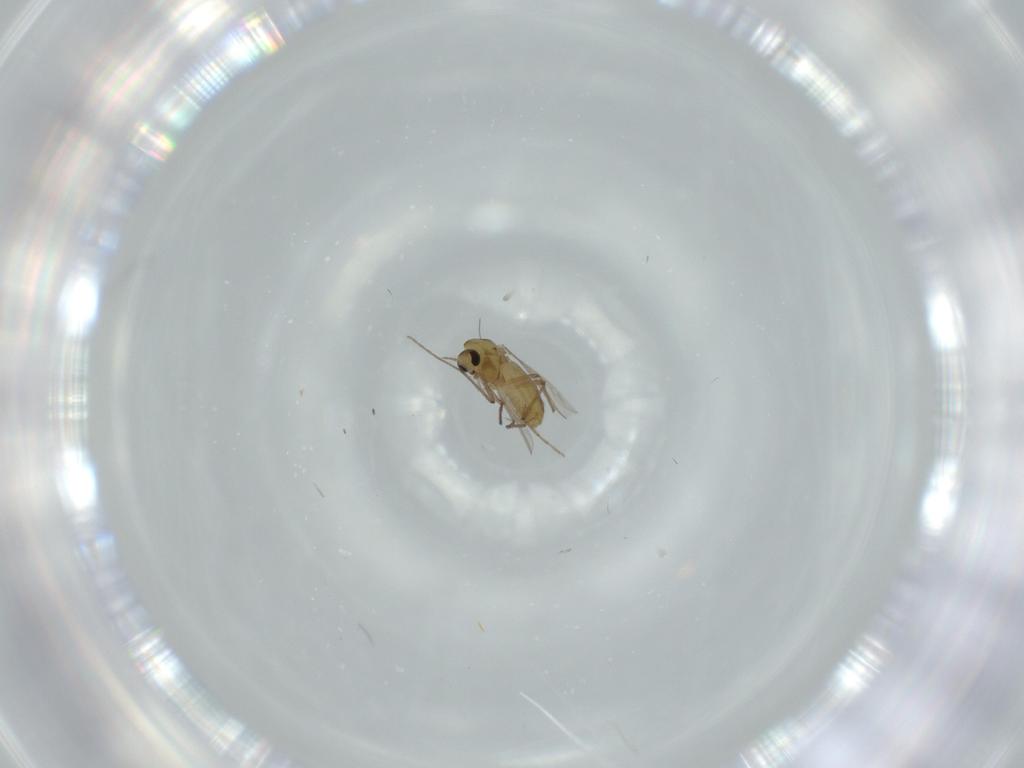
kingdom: Animalia
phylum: Arthropoda
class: Insecta
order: Diptera
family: Chironomidae
